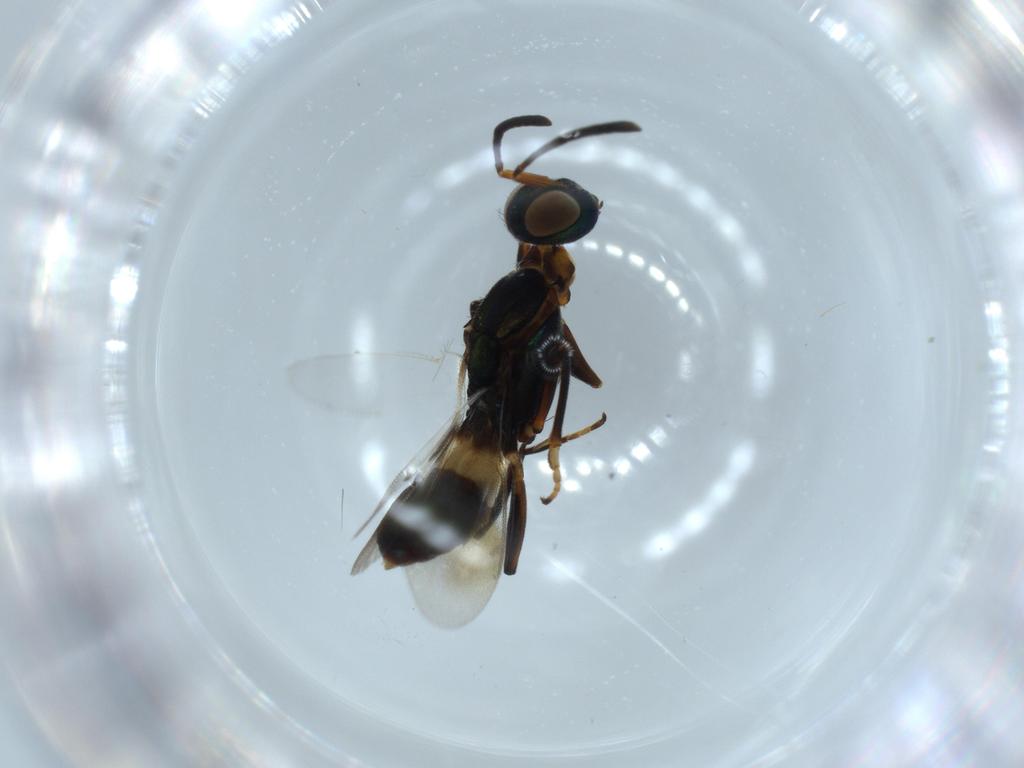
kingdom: Animalia
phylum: Arthropoda
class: Insecta
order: Hymenoptera
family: Eupelmidae
